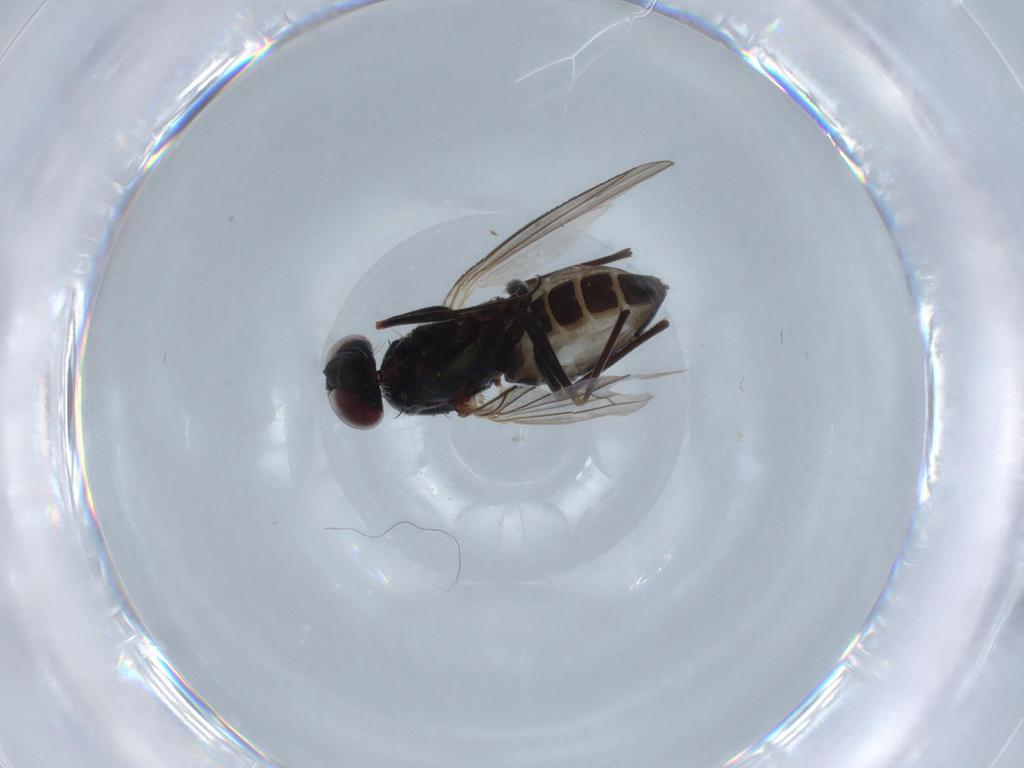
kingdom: Animalia
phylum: Arthropoda
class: Insecta
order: Diptera
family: Dolichopodidae
